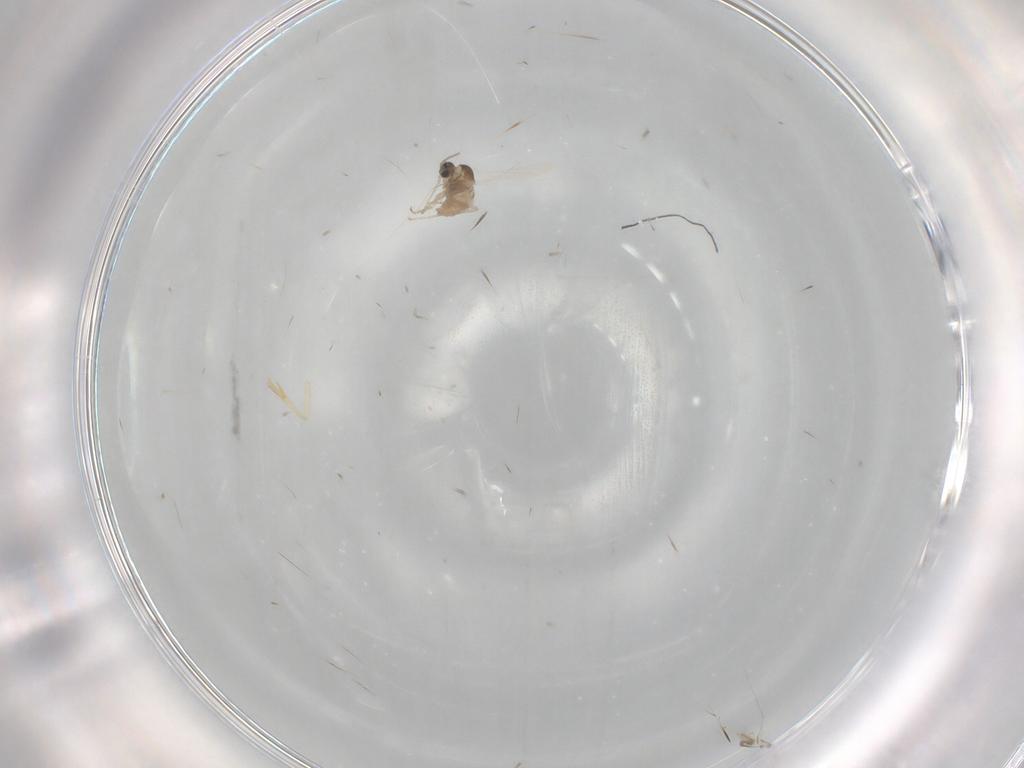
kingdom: Animalia
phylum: Arthropoda
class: Insecta
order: Diptera
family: Cecidomyiidae
